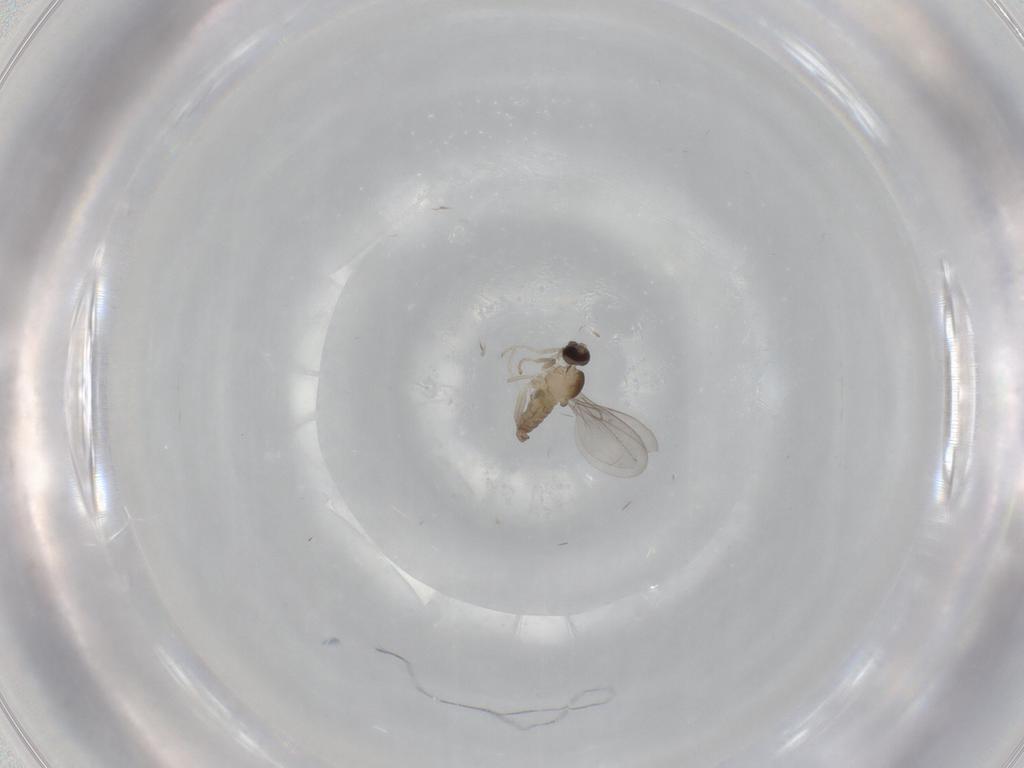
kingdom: Animalia
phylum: Arthropoda
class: Insecta
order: Diptera
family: Cecidomyiidae
